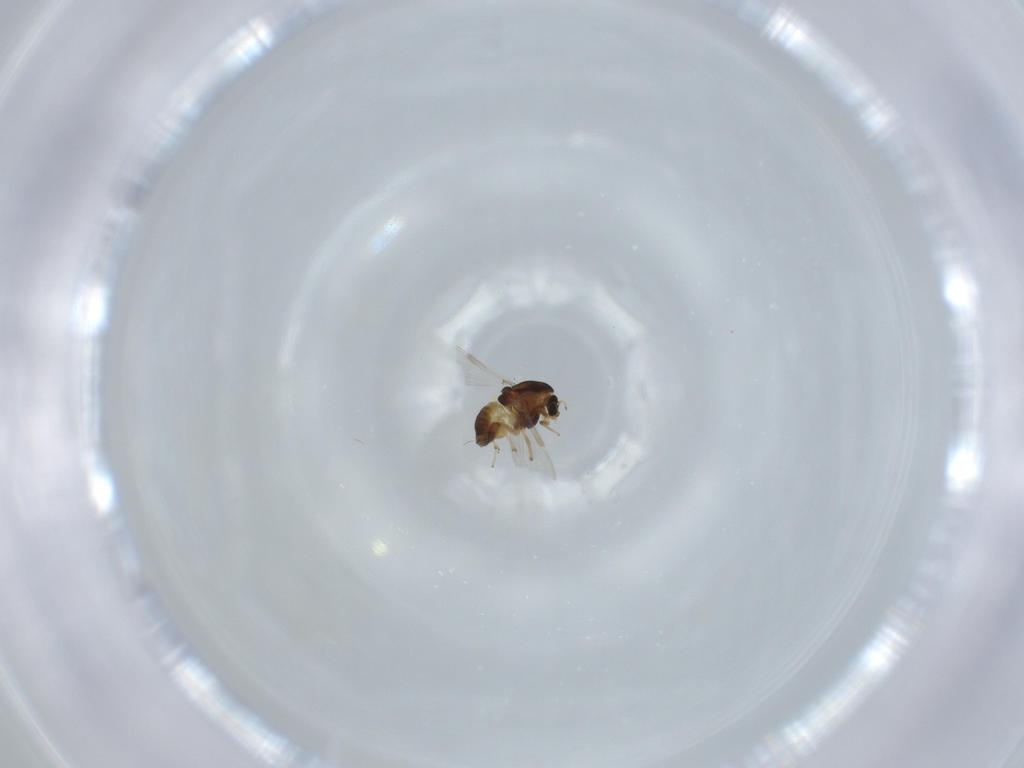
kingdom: Animalia
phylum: Arthropoda
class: Insecta
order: Diptera
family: Chironomidae
